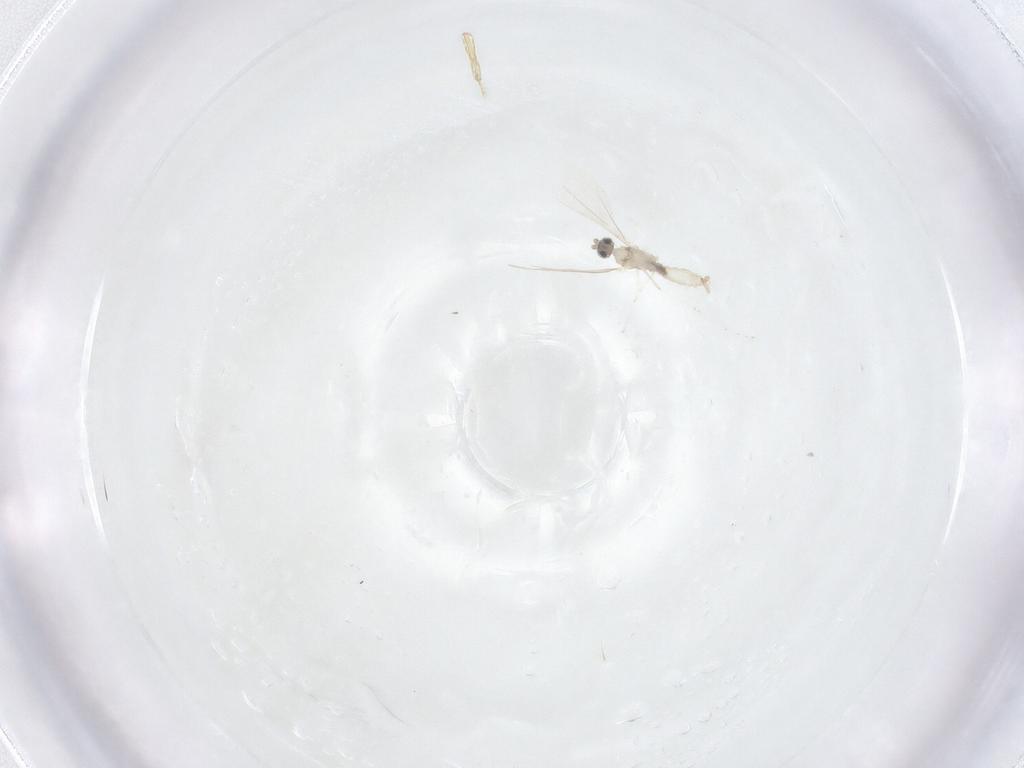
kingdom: Animalia
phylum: Arthropoda
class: Insecta
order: Diptera
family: Cecidomyiidae
